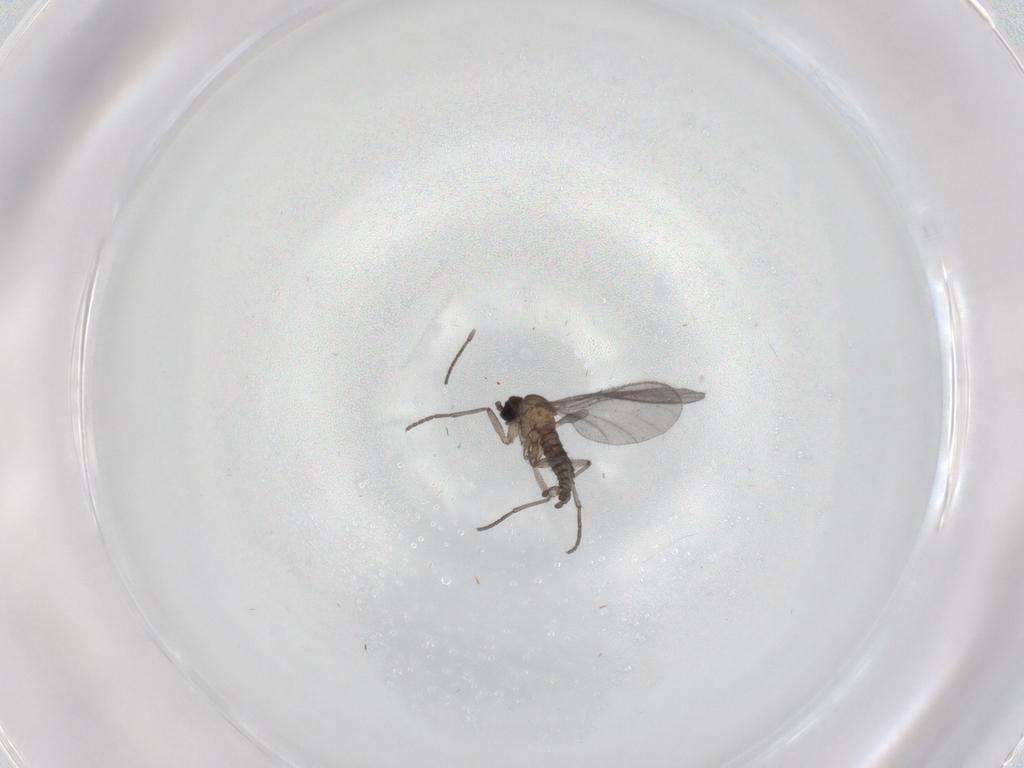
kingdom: Animalia
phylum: Arthropoda
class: Insecta
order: Diptera
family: Sciaridae
